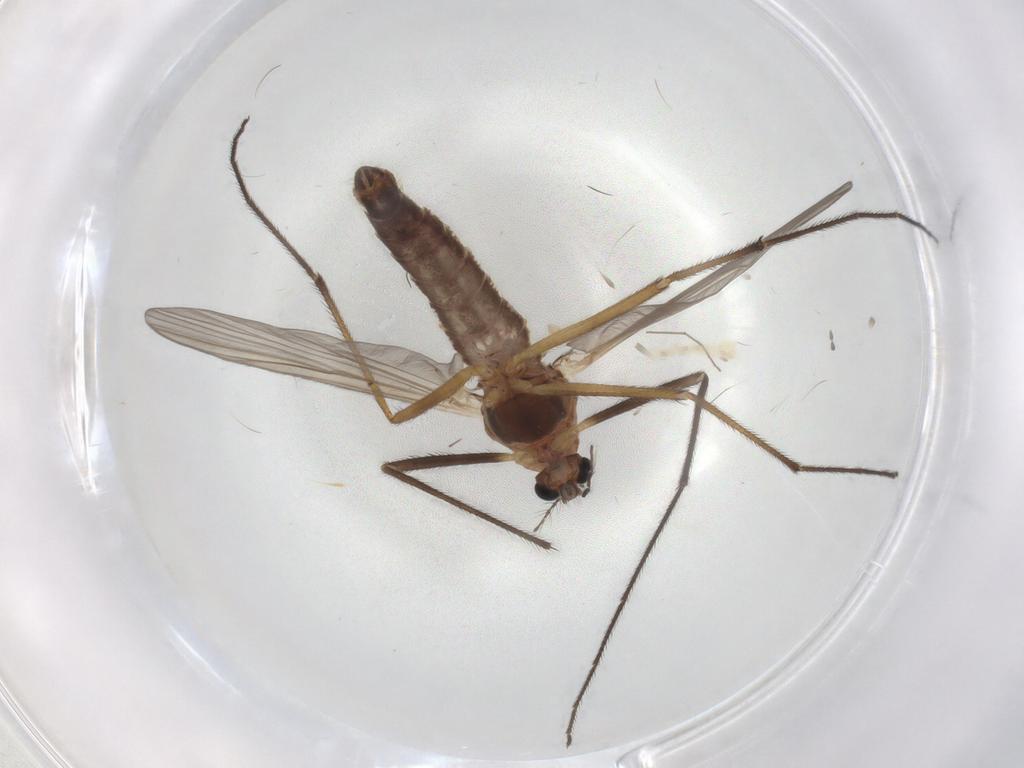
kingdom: Animalia
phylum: Arthropoda
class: Insecta
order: Diptera
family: Chironomidae
